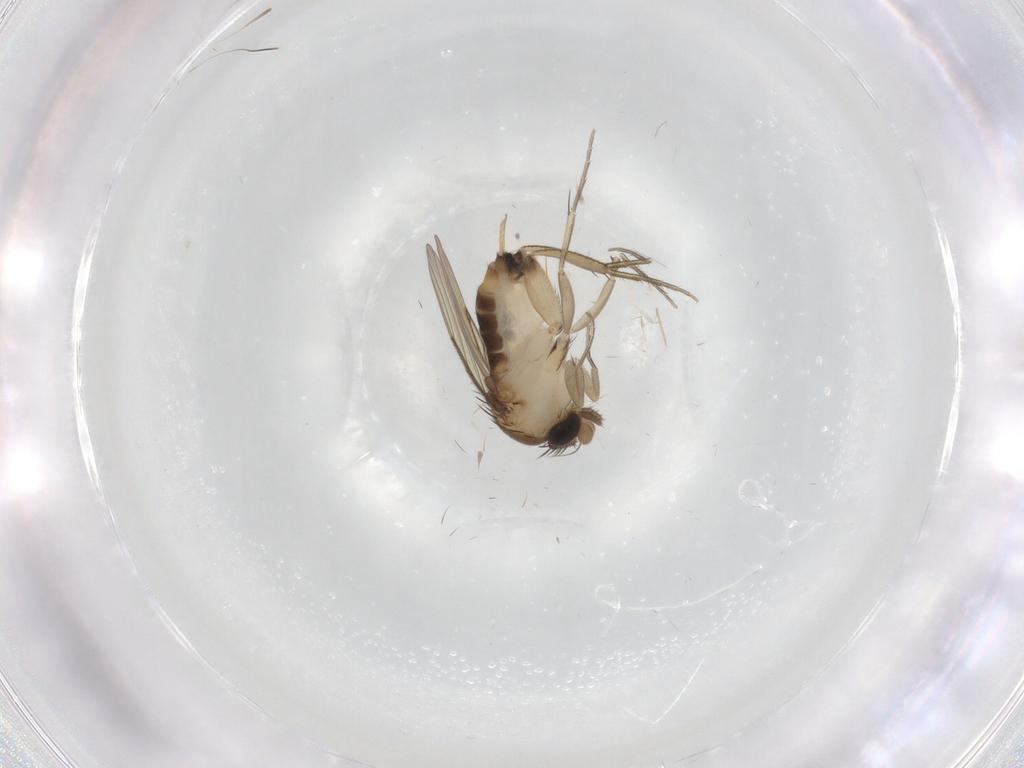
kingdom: Animalia
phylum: Arthropoda
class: Insecta
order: Diptera
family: Phoridae
